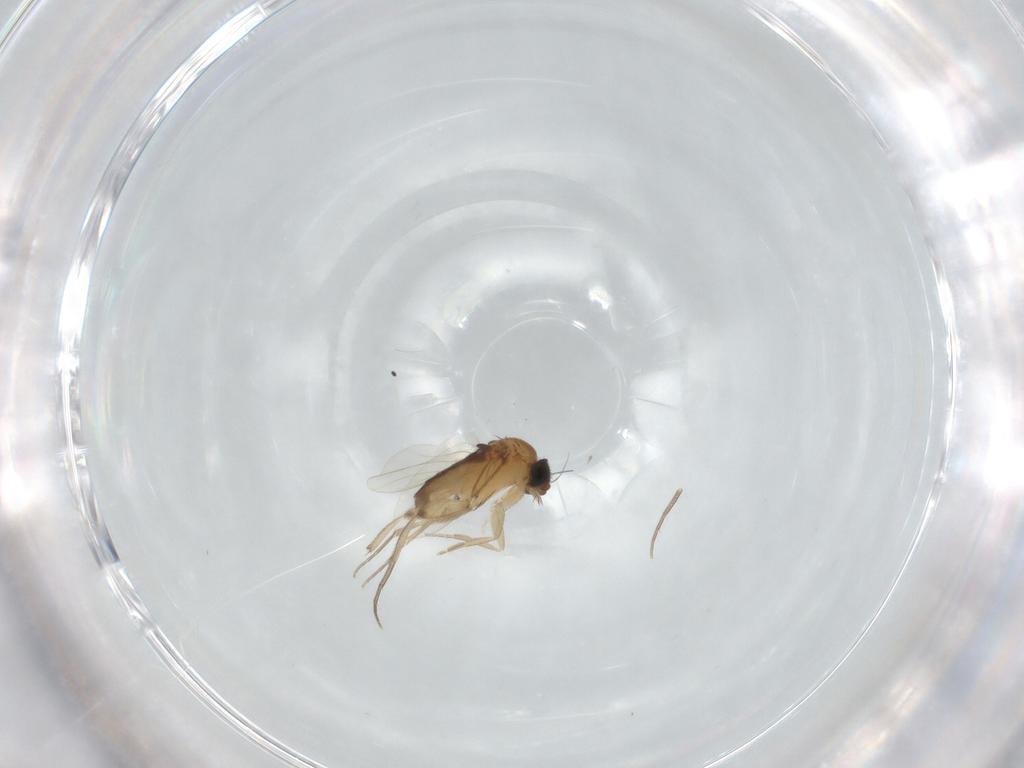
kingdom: Animalia
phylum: Arthropoda
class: Insecta
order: Diptera
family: Phoridae
